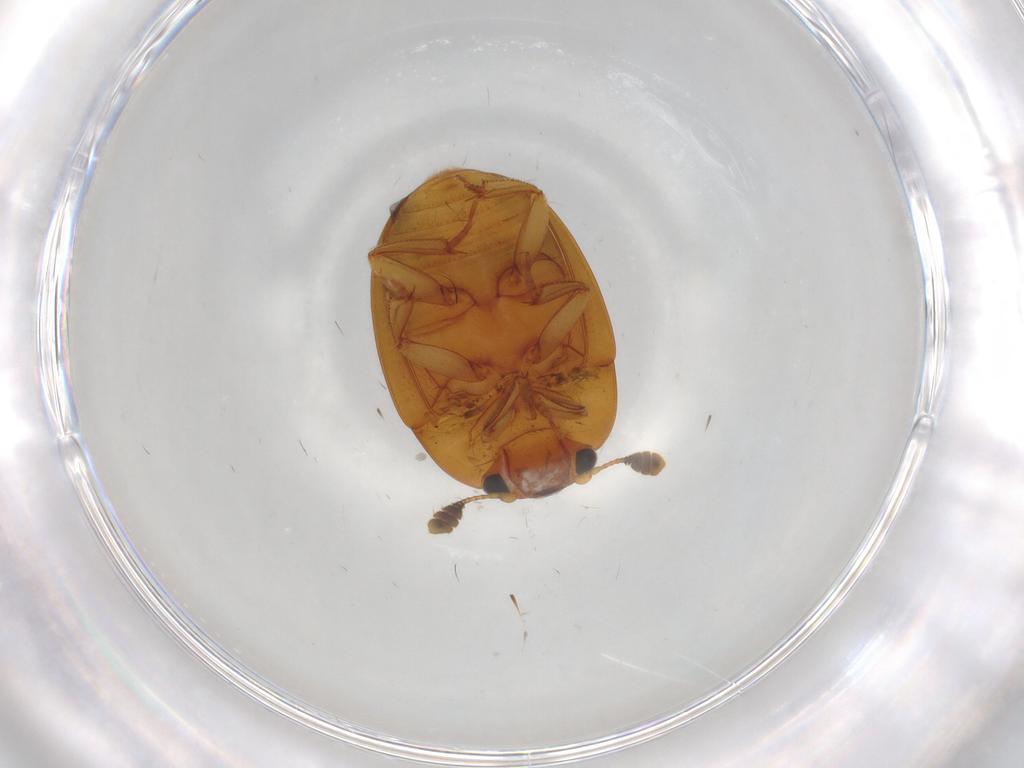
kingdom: Animalia
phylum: Arthropoda
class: Insecta
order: Coleoptera
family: Nitidulidae
